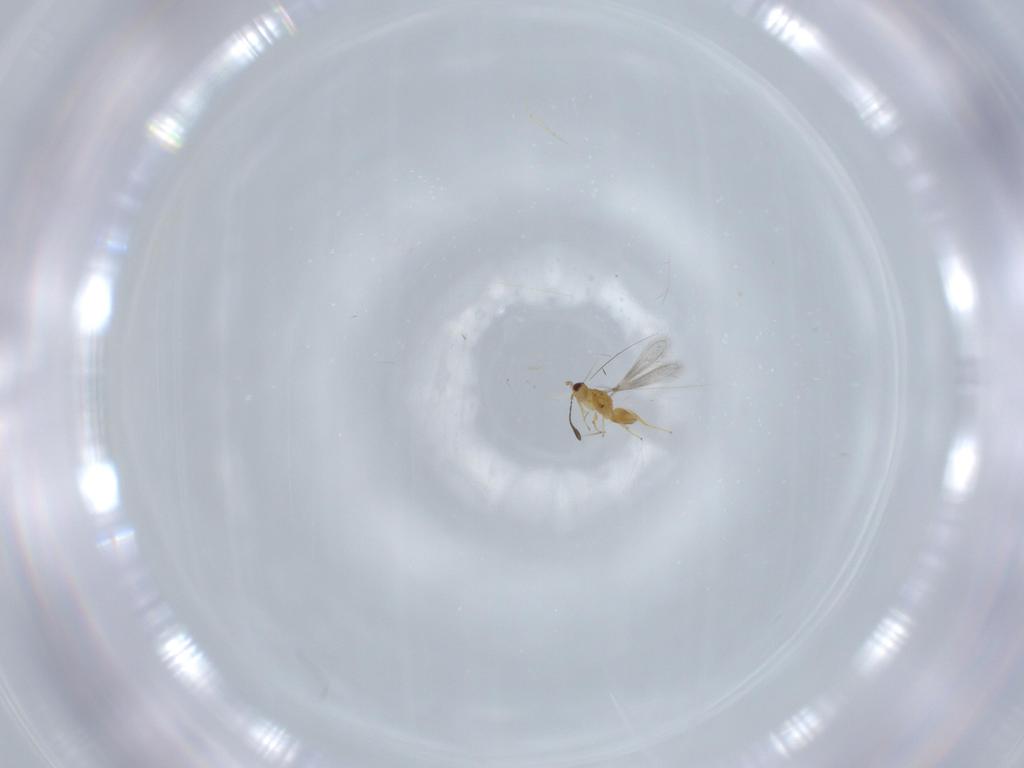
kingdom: Animalia
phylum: Arthropoda
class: Insecta
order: Hymenoptera
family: Mymaridae
